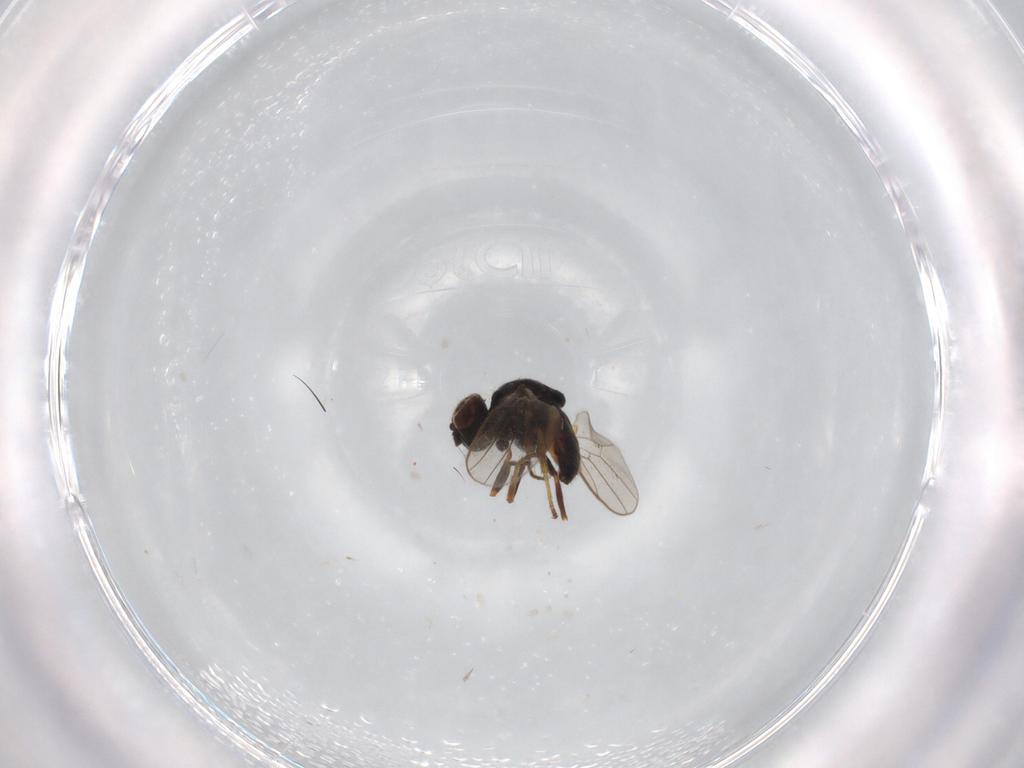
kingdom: Animalia
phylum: Arthropoda
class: Insecta
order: Diptera
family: Chloropidae
